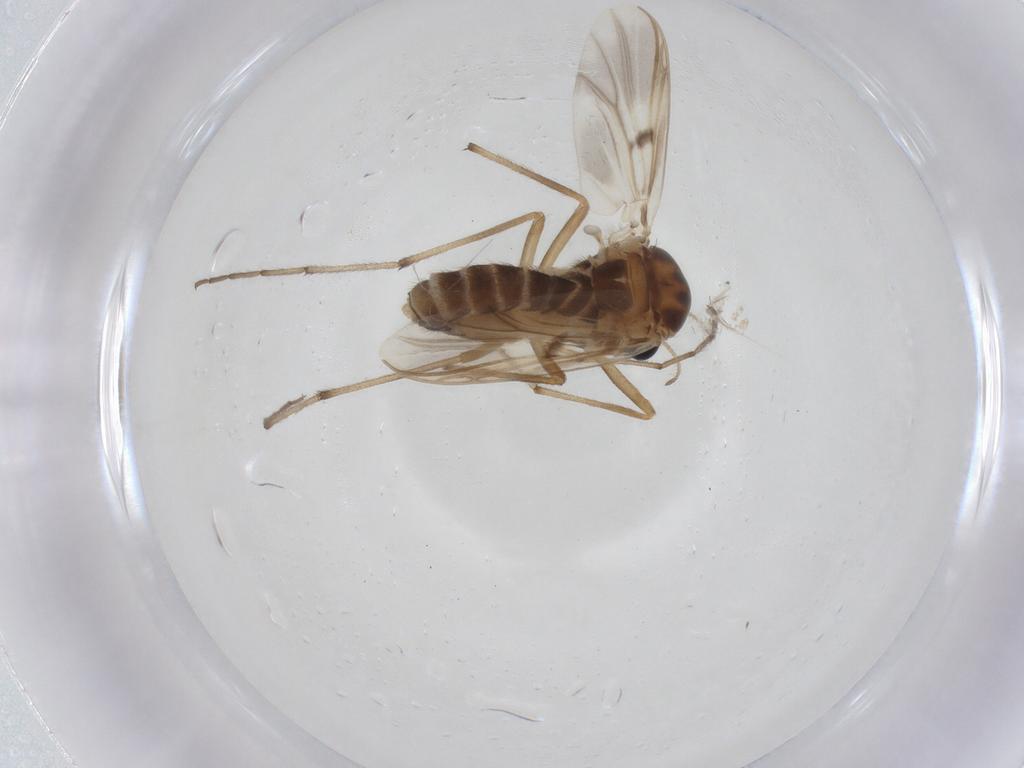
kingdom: Animalia
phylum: Arthropoda
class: Insecta
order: Diptera
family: Chironomidae
